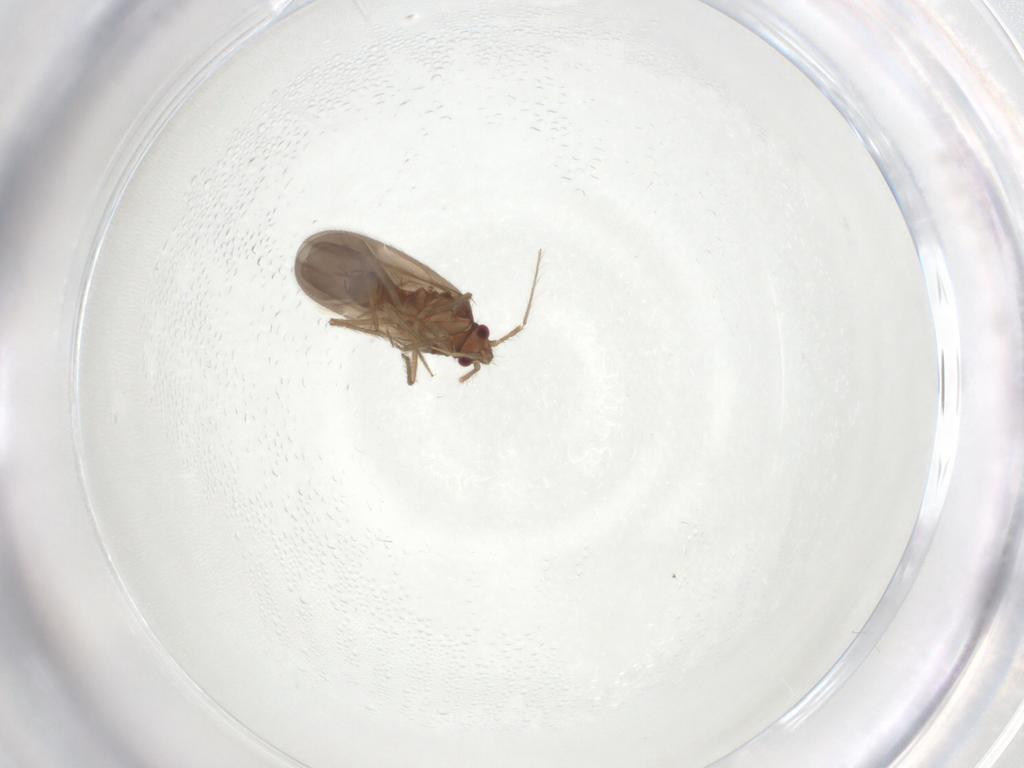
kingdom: Animalia
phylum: Arthropoda
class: Insecta
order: Hemiptera
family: Ceratocombidae
